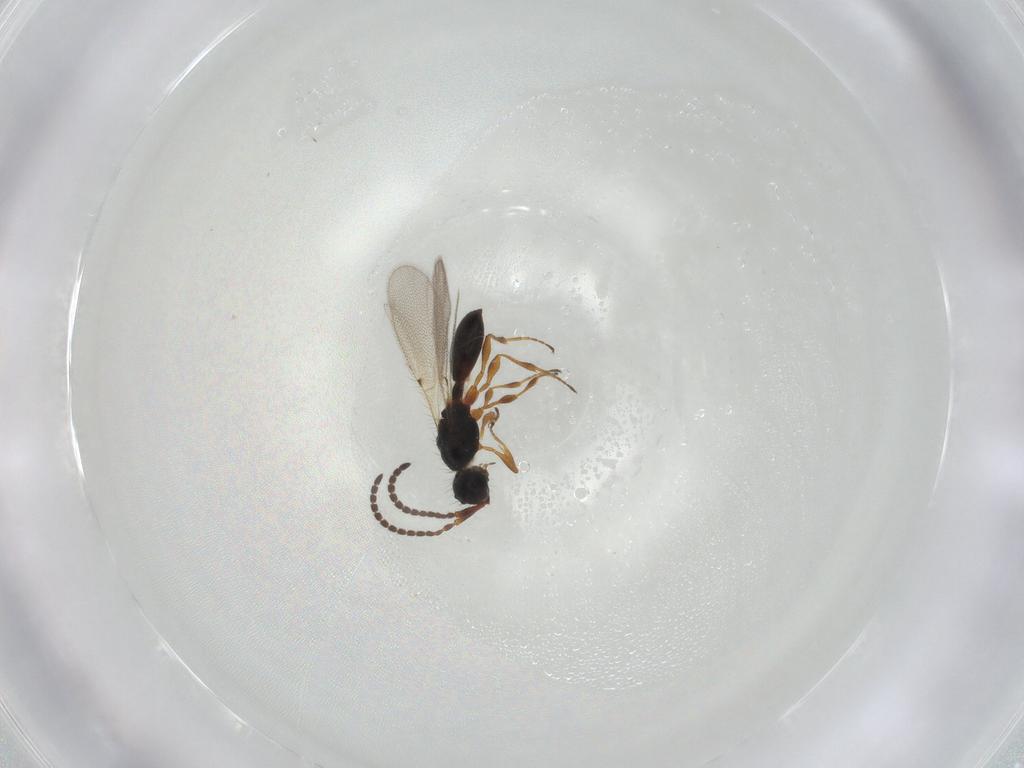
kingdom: Animalia
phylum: Arthropoda
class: Insecta
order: Hymenoptera
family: Diapriidae
